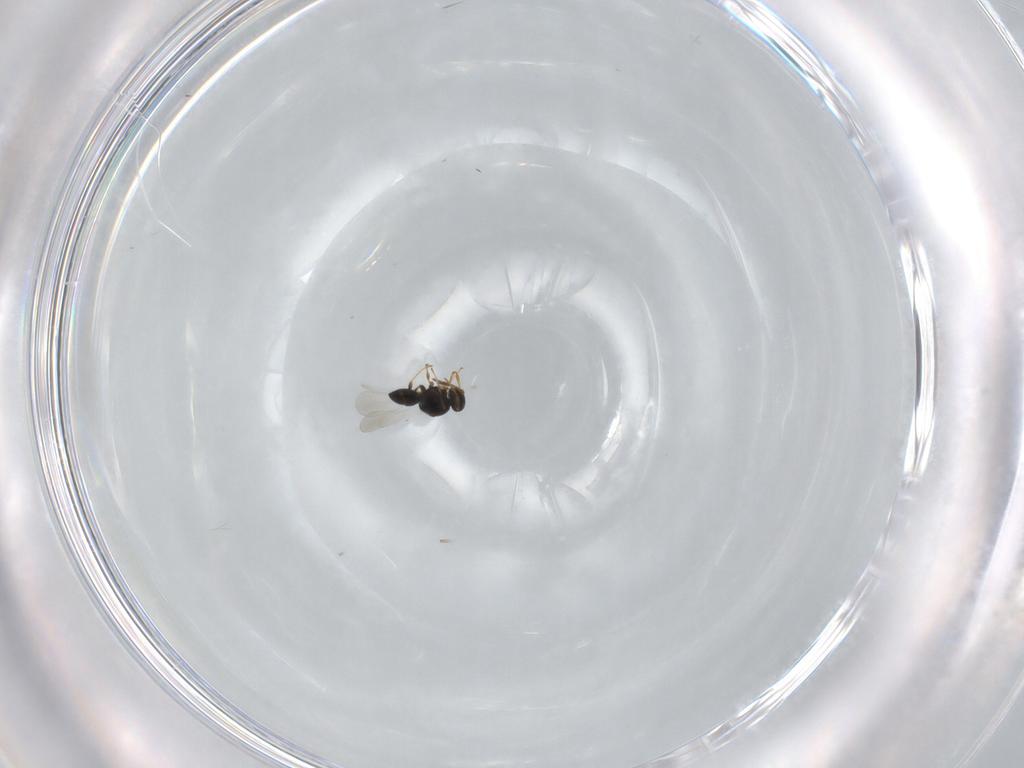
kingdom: Animalia
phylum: Arthropoda
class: Insecta
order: Hymenoptera
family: Platygastridae
